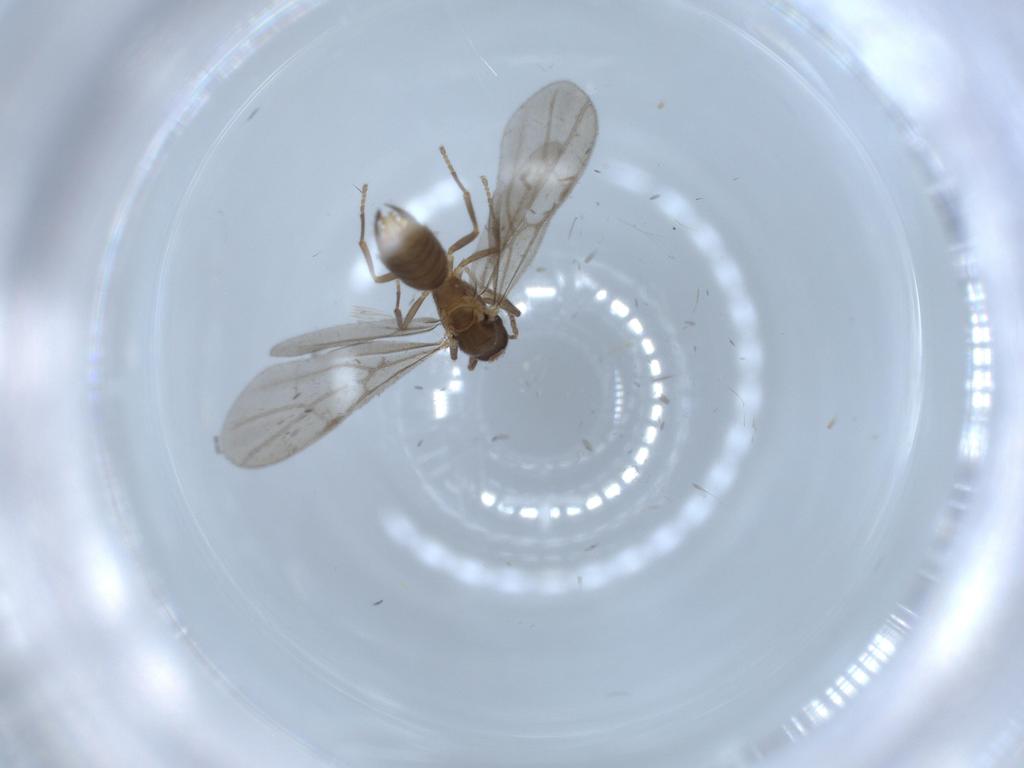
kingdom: Animalia
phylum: Arthropoda
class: Insecta
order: Hymenoptera
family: Formicidae
